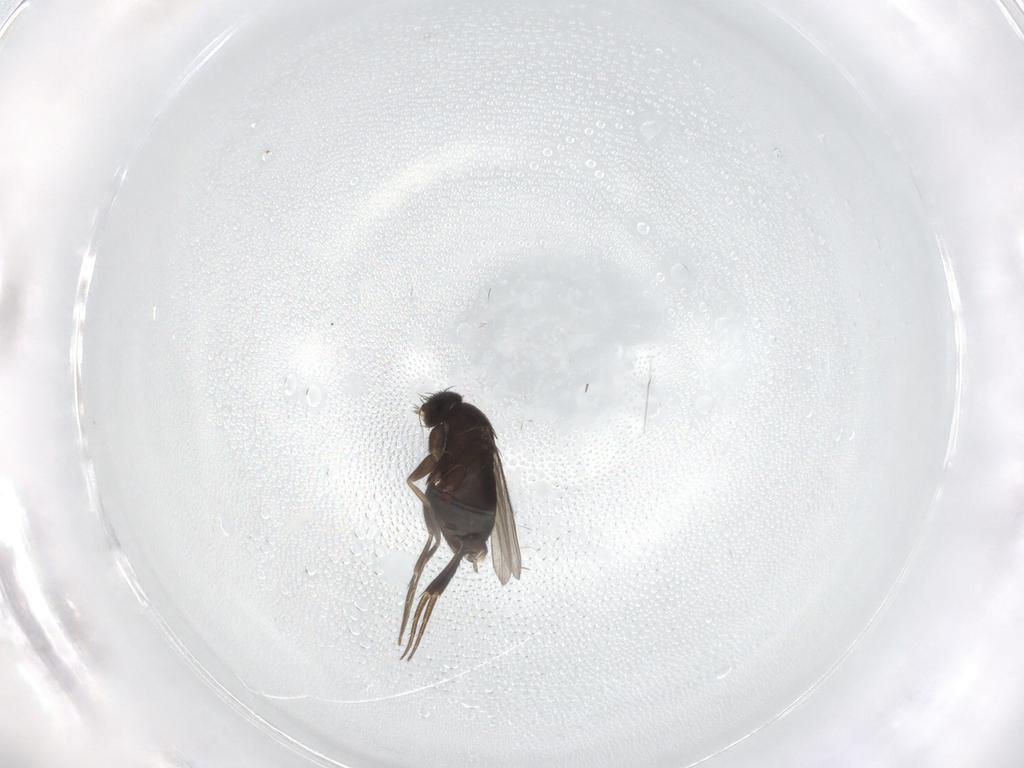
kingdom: Animalia
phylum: Arthropoda
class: Insecta
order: Diptera
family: Phoridae
